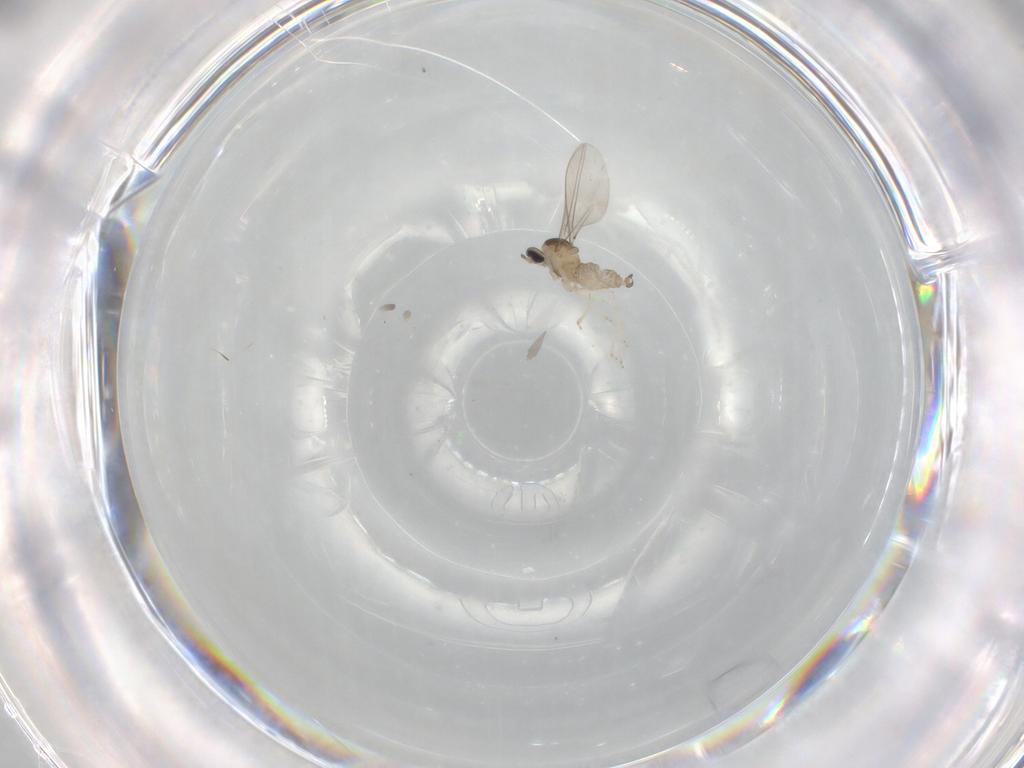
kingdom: Animalia
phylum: Arthropoda
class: Insecta
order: Diptera
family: Cecidomyiidae
